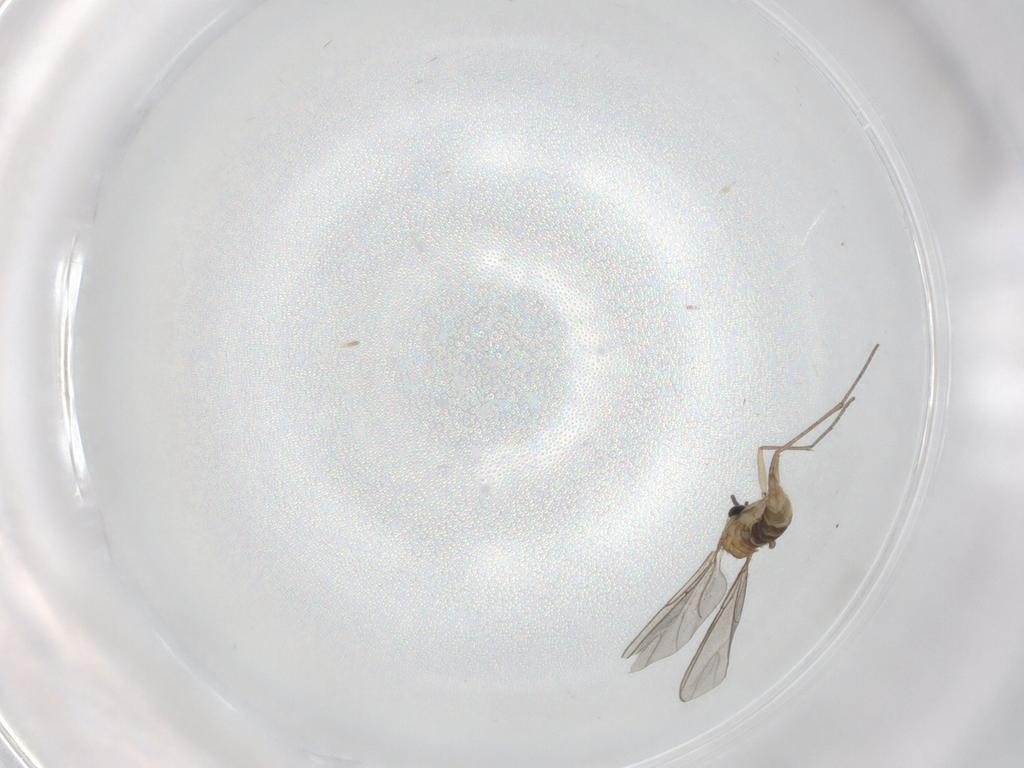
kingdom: Animalia
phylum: Arthropoda
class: Insecta
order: Diptera
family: Sciaridae
